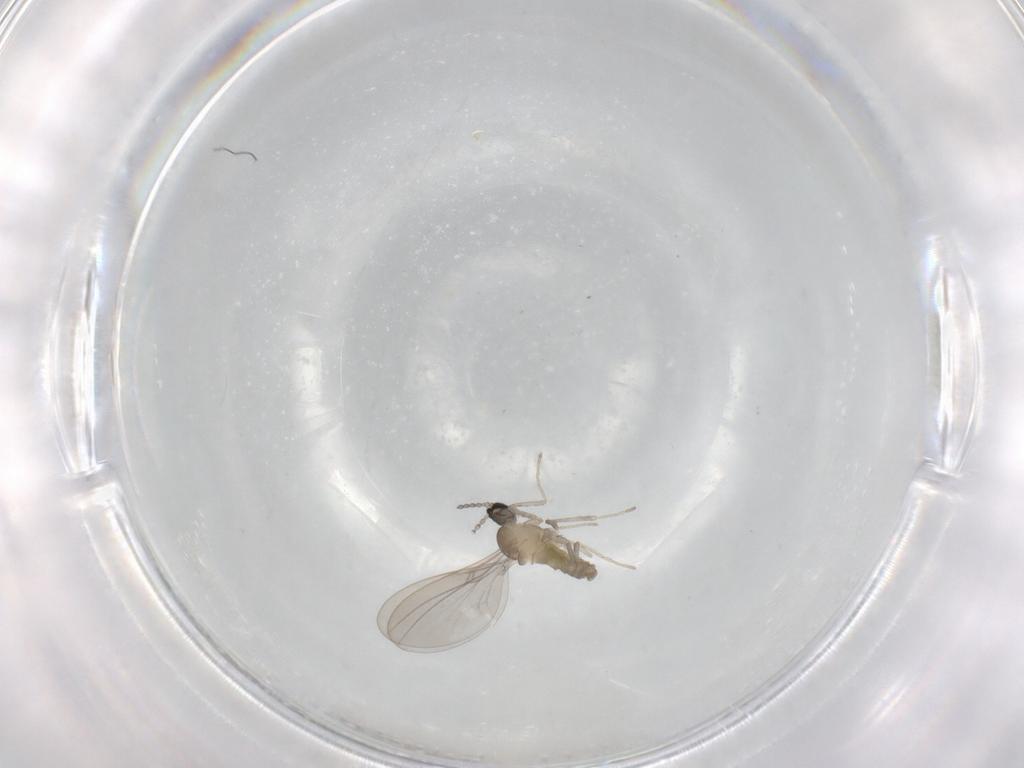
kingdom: Animalia
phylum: Arthropoda
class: Insecta
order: Diptera
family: Cecidomyiidae
